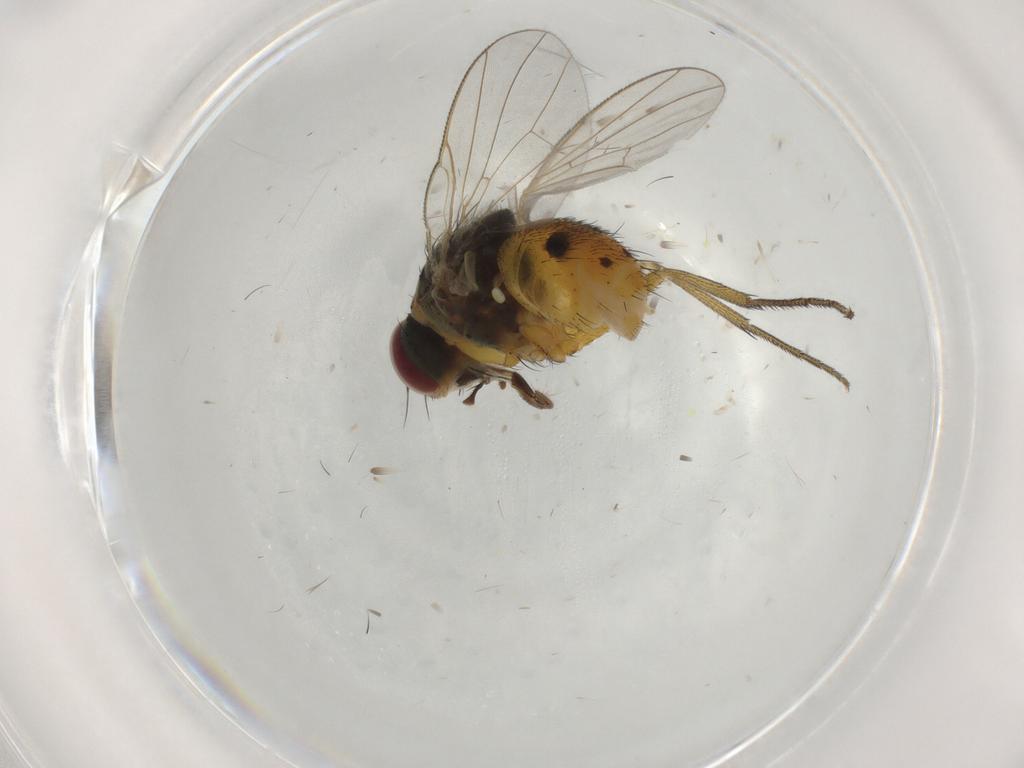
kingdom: Animalia
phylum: Arthropoda
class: Insecta
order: Diptera
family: Muscidae
